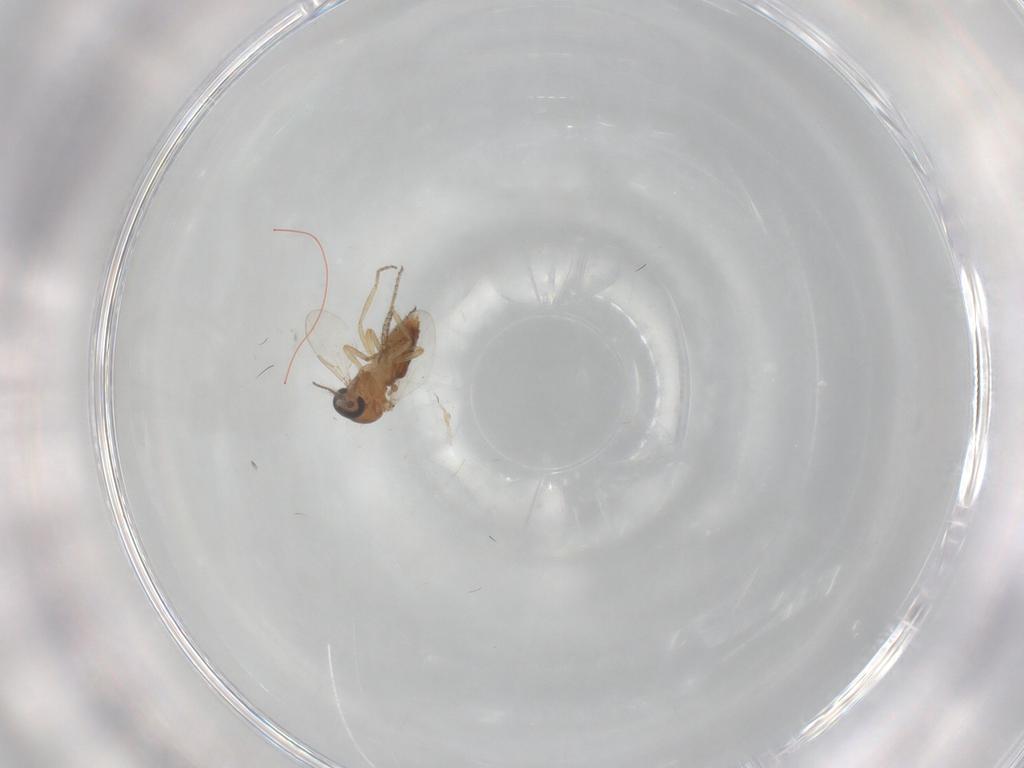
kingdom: Animalia
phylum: Arthropoda
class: Insecta
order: Diptera
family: Ceratopogonidae
